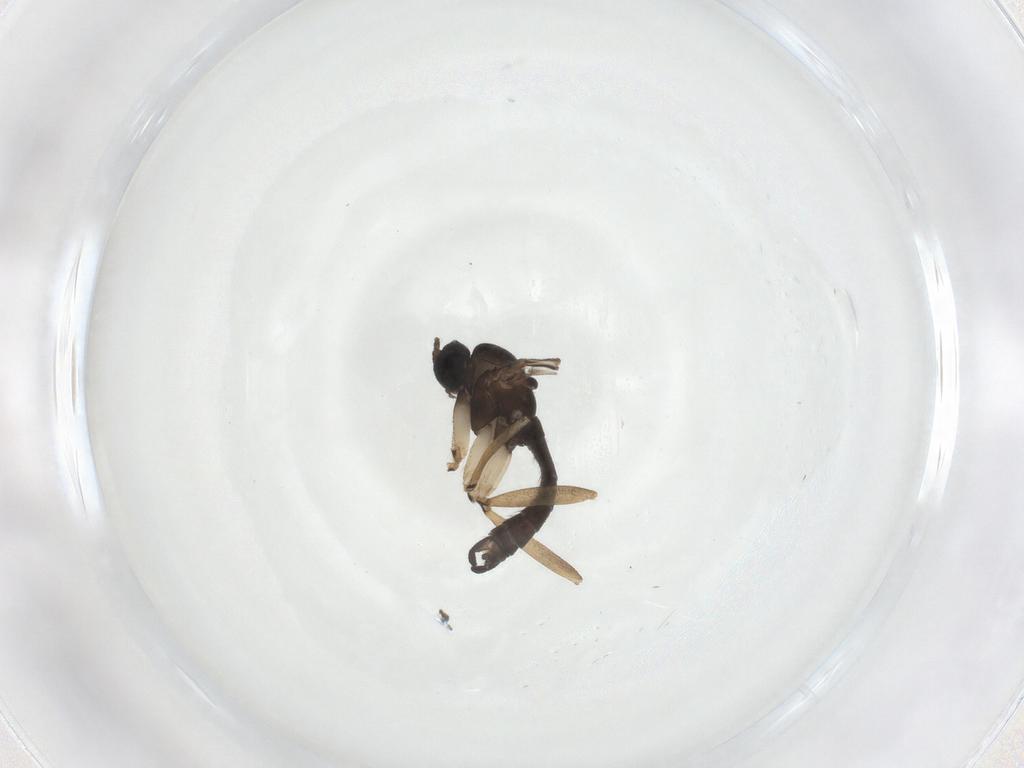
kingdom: Animalia
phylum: Arthropoda
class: Insecta
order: Diptera
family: Sciaridae
